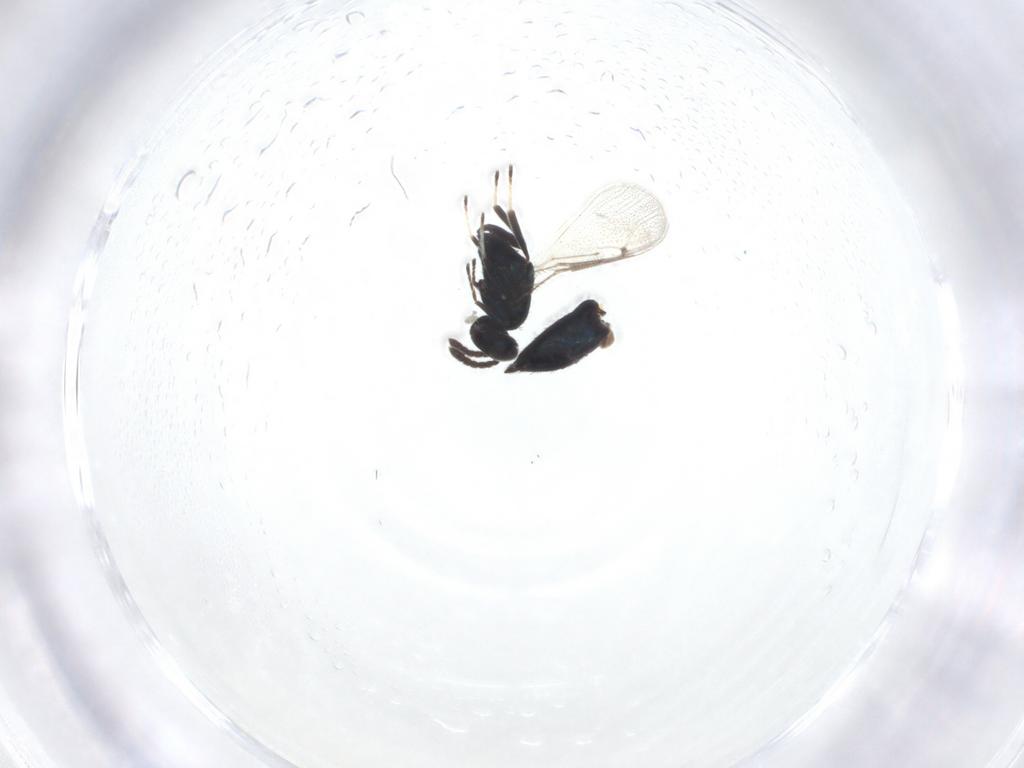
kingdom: Animalia
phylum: Arthropoda
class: Insecta
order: Hymenoptera
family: Eulophidae
